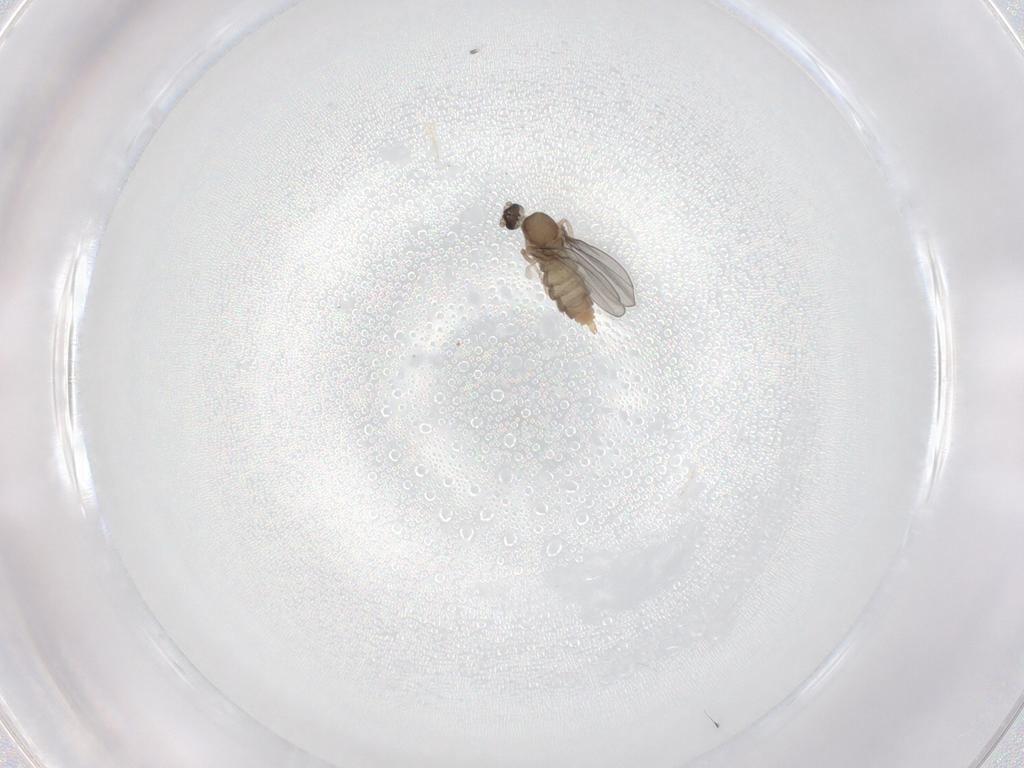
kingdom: Animalia
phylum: Arthropoda
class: Insecta
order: Diptera
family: Cecidomyiidae
